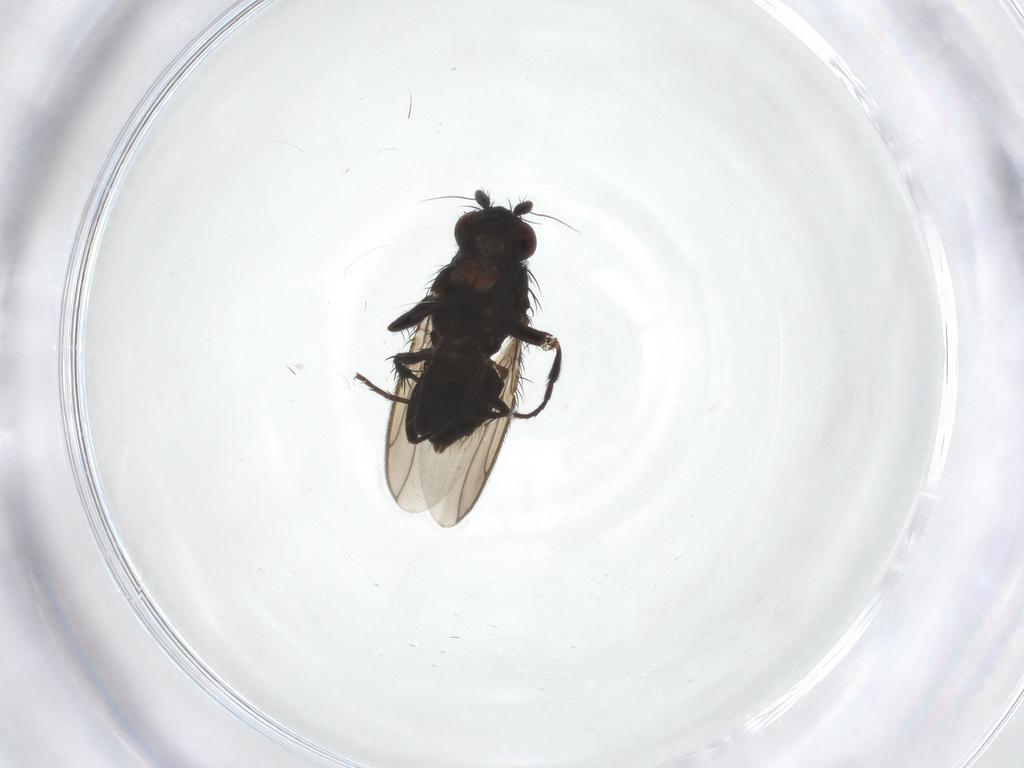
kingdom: Animalia
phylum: Arthropoda
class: Insecta
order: Diptera
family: Sphaeroceridae
